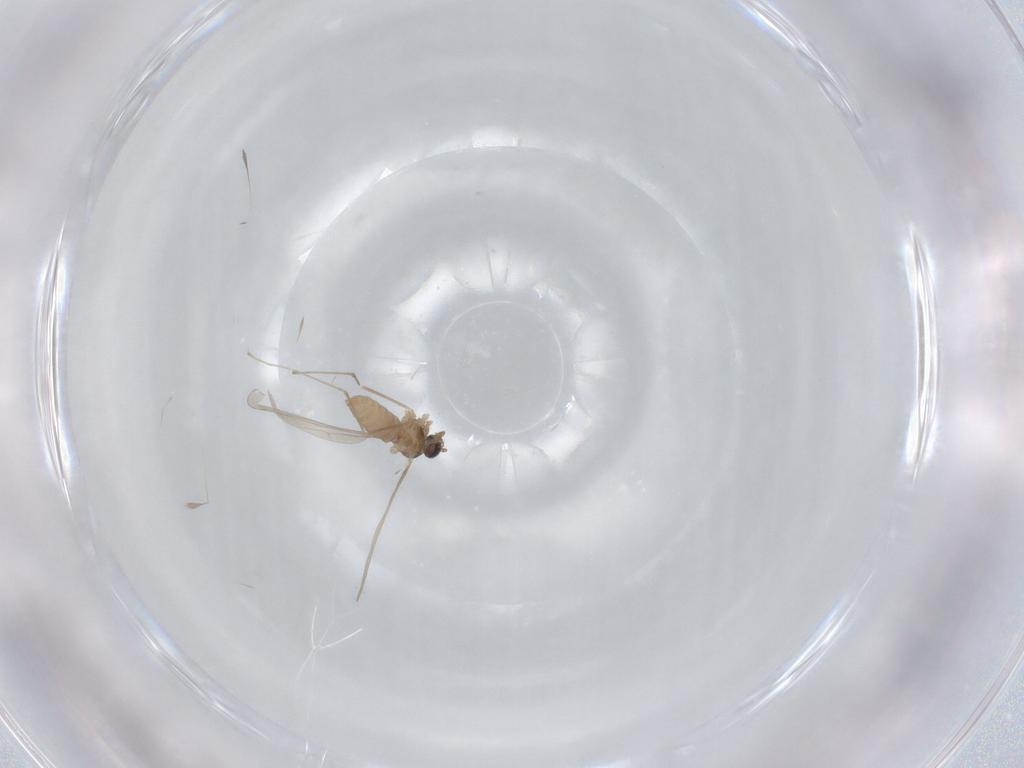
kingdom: Animalia
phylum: Arthropoda
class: Insecta
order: Diptera
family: Cecidomyiidae
